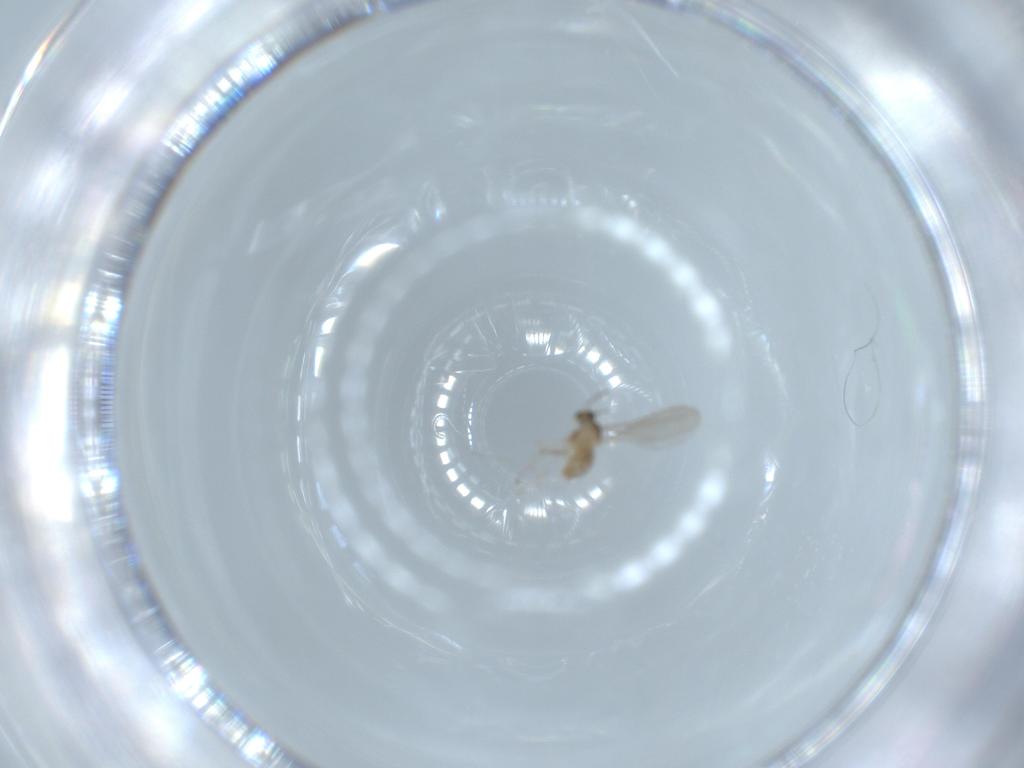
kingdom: Animalia
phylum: Arthropoda
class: Insecta
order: Diptera
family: Cecidomyiidae
